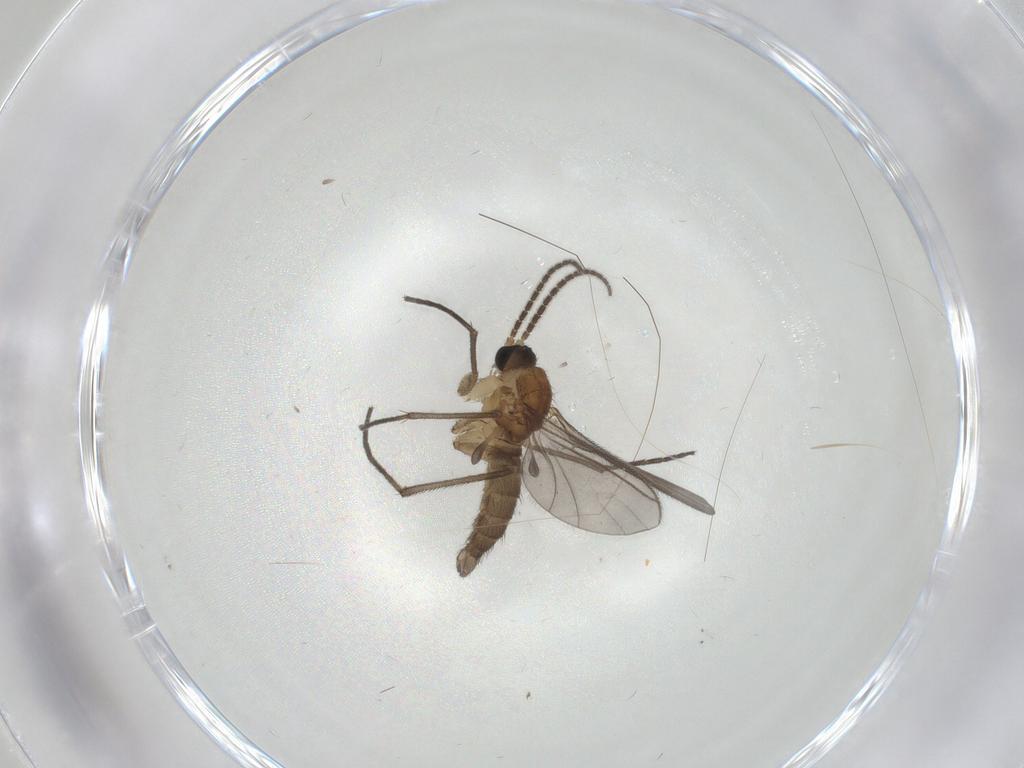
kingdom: Animalia
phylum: Arthropoda
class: Insecta
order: Diptera
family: Sciaridae
